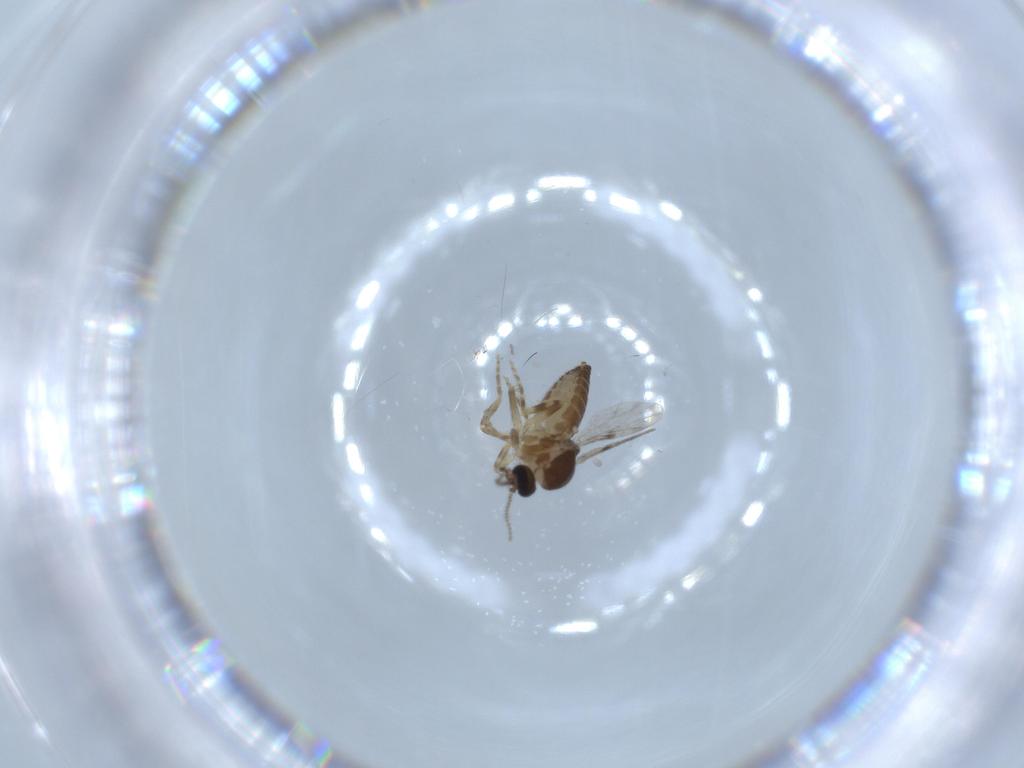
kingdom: Animalia
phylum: Arthropoda
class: Insecta
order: Diptera
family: Ceratopogonidae
